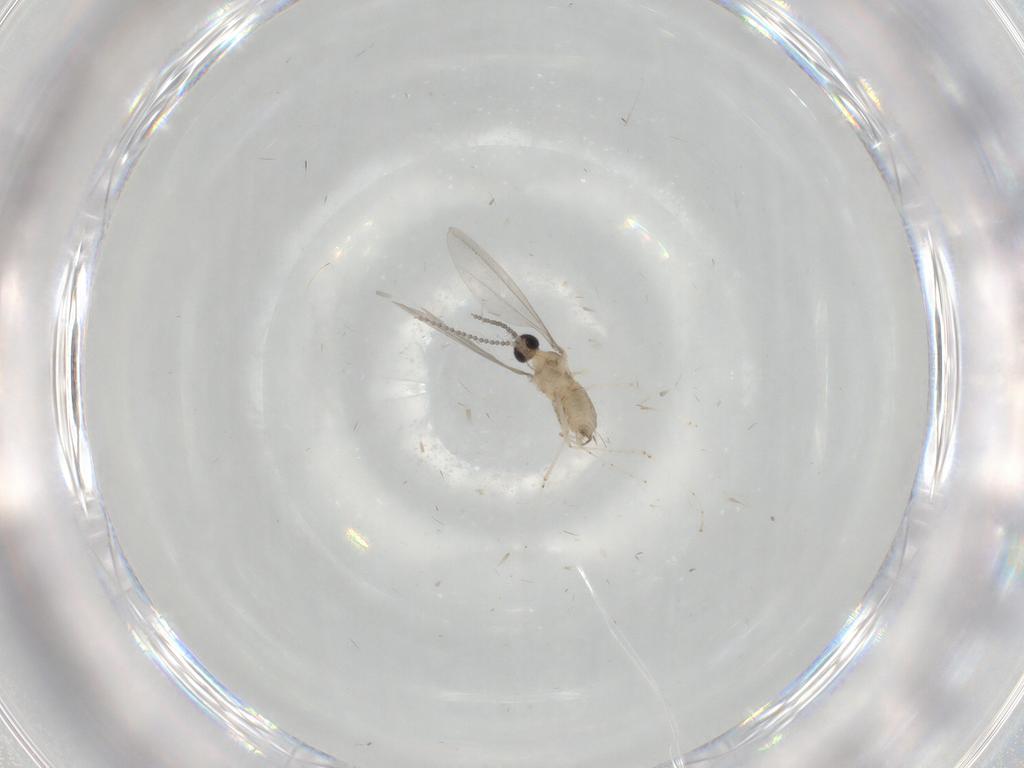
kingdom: Animalia
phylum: Arthropoda
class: Insecta
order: Diptera
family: Cecidomyiidae
